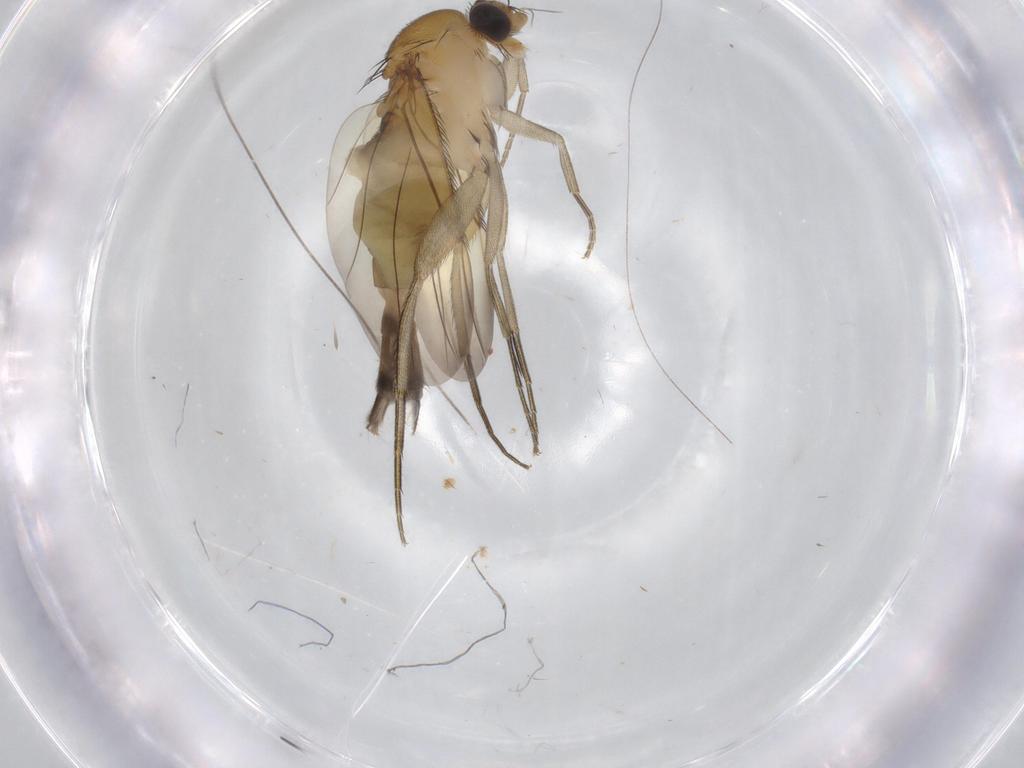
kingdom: Animalia
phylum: Arthropoda
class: Insecta
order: Diptera
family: Phoridae
